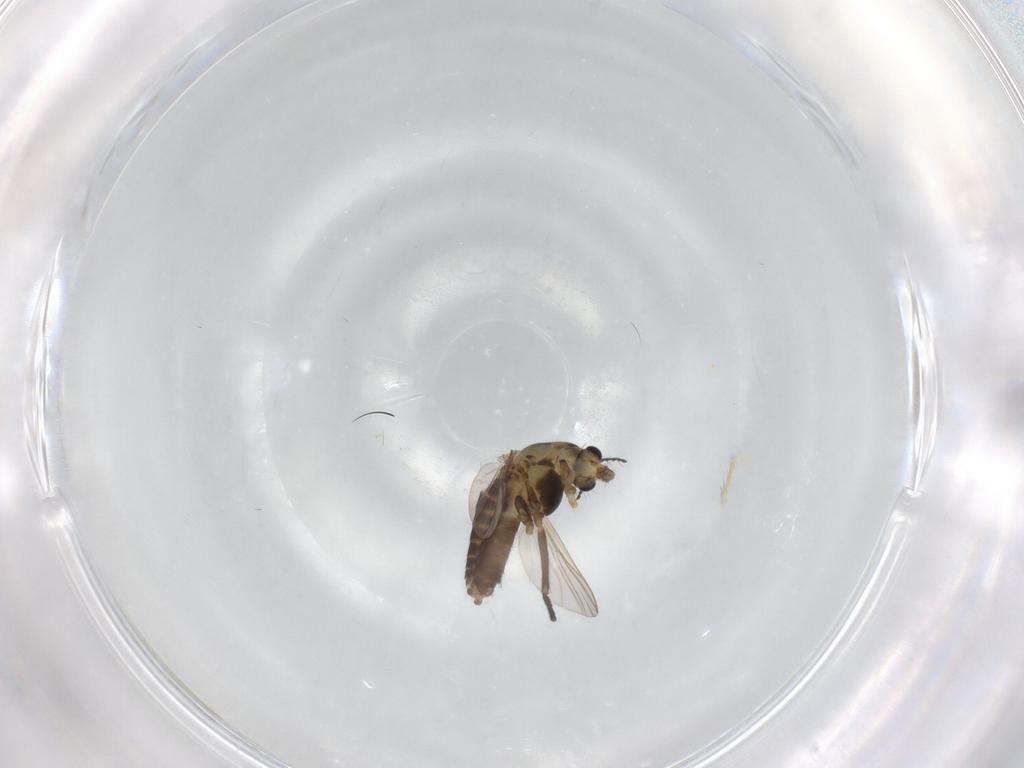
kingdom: Animalia
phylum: Arthropoda
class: Insecta
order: Diptera
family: Chironomidae
